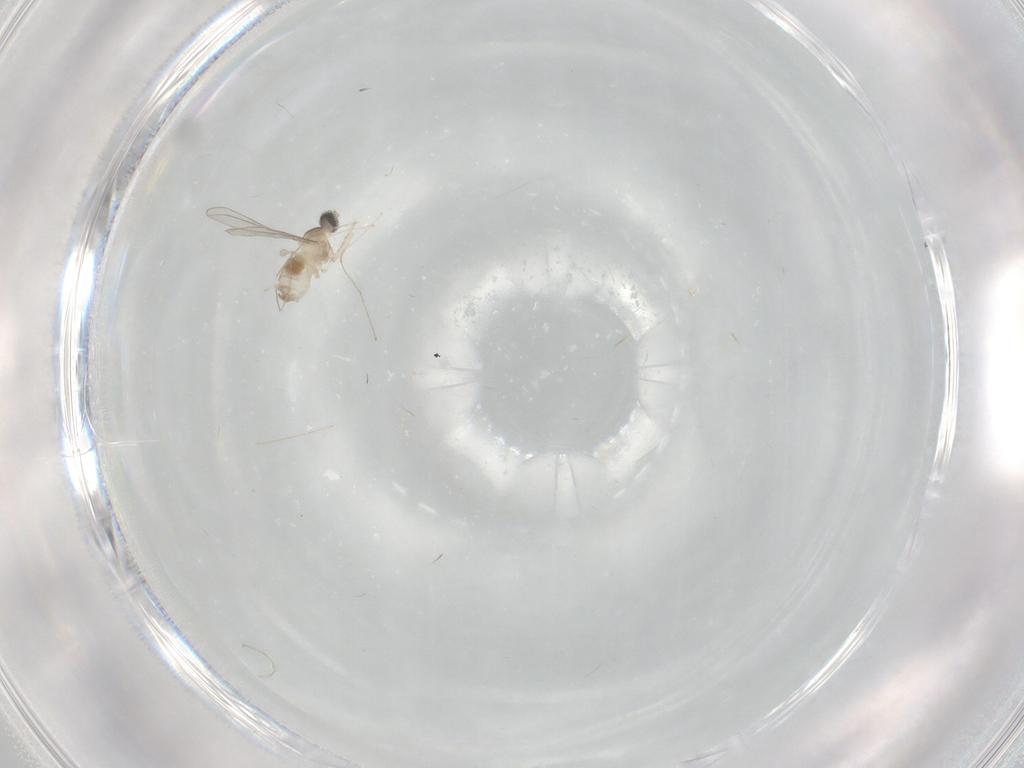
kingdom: Animalia
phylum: Arthropoda
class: Insecta
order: Diptera
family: Cecidomyiidae
